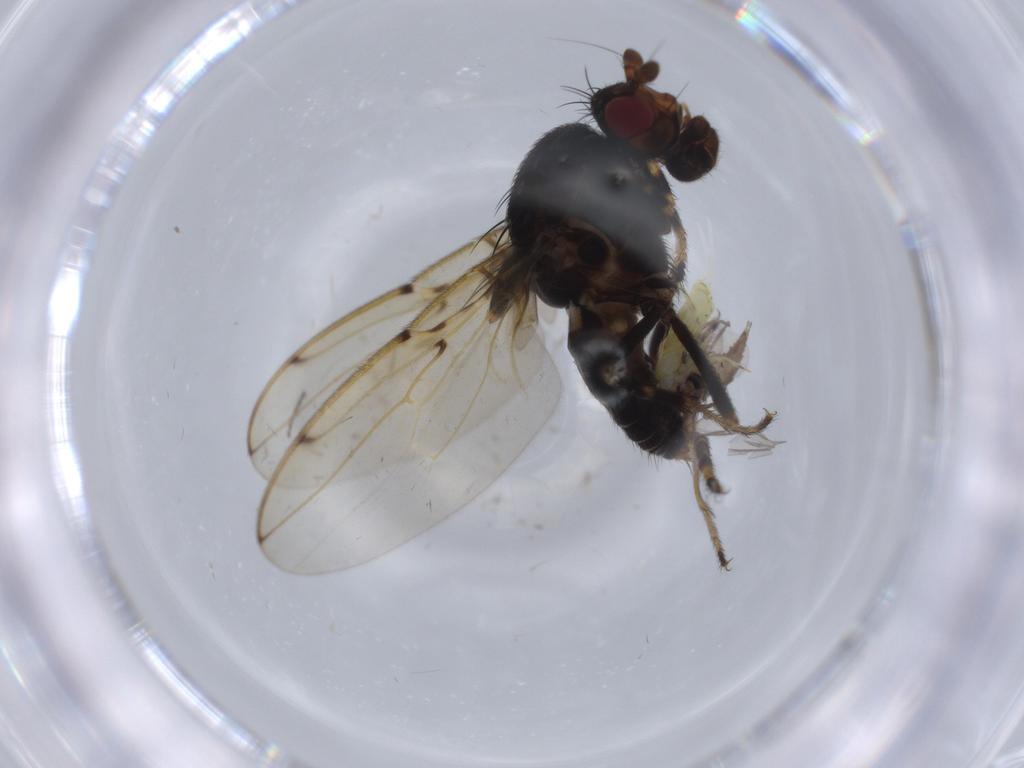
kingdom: Animalia
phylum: Arthropoda
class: Insecta
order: Diptera
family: Sphaeroceridae
